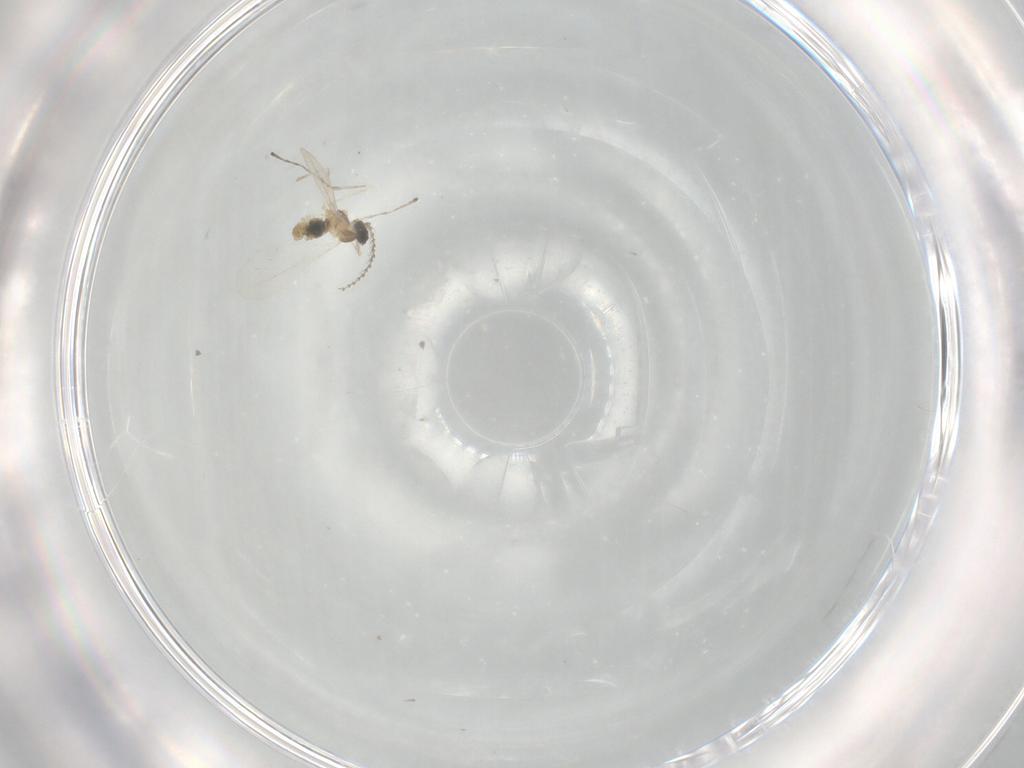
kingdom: Animalia
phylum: Arthropoda
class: Insecta
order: Diptera
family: Cecidomyiidae
